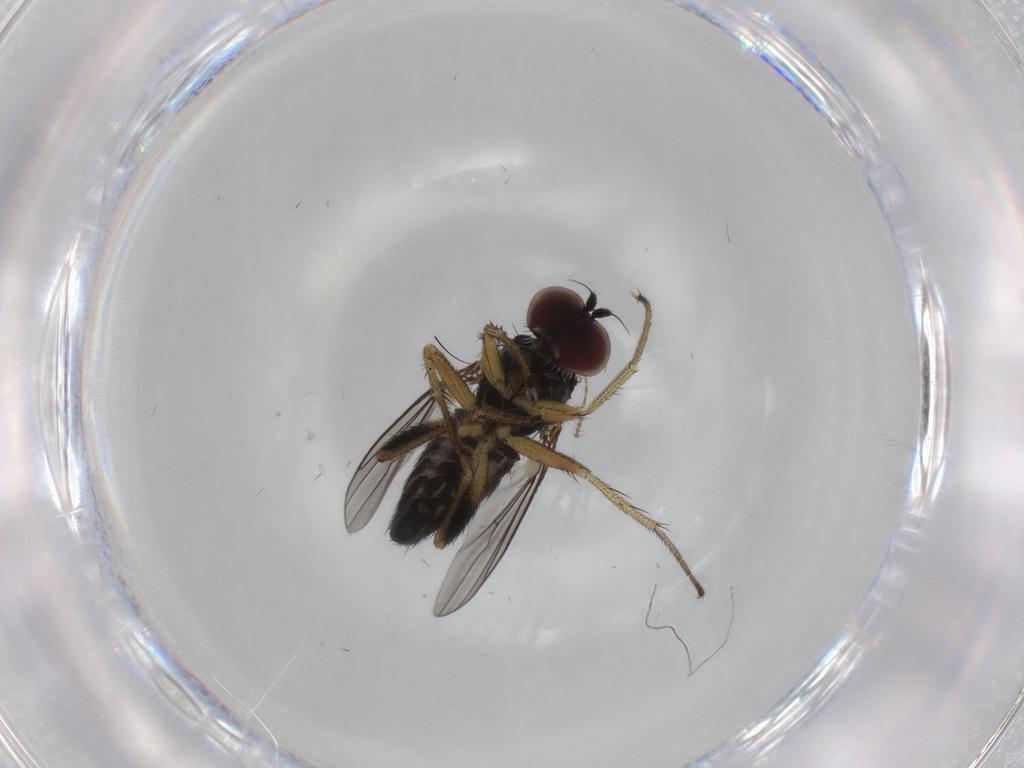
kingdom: Animalia
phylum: Arthropoda
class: Insecta
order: Diptera
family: Dolichopodidae
